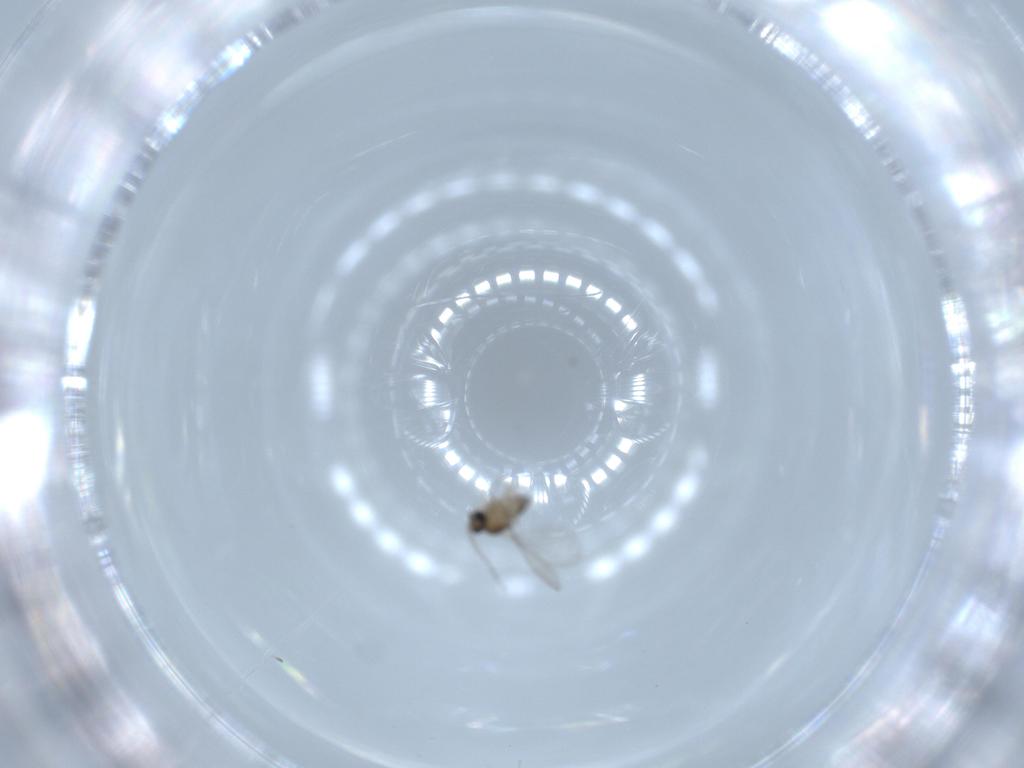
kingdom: Animalia
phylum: Arthropoda
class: Insecta
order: Diptera
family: Cecidomyiidae
